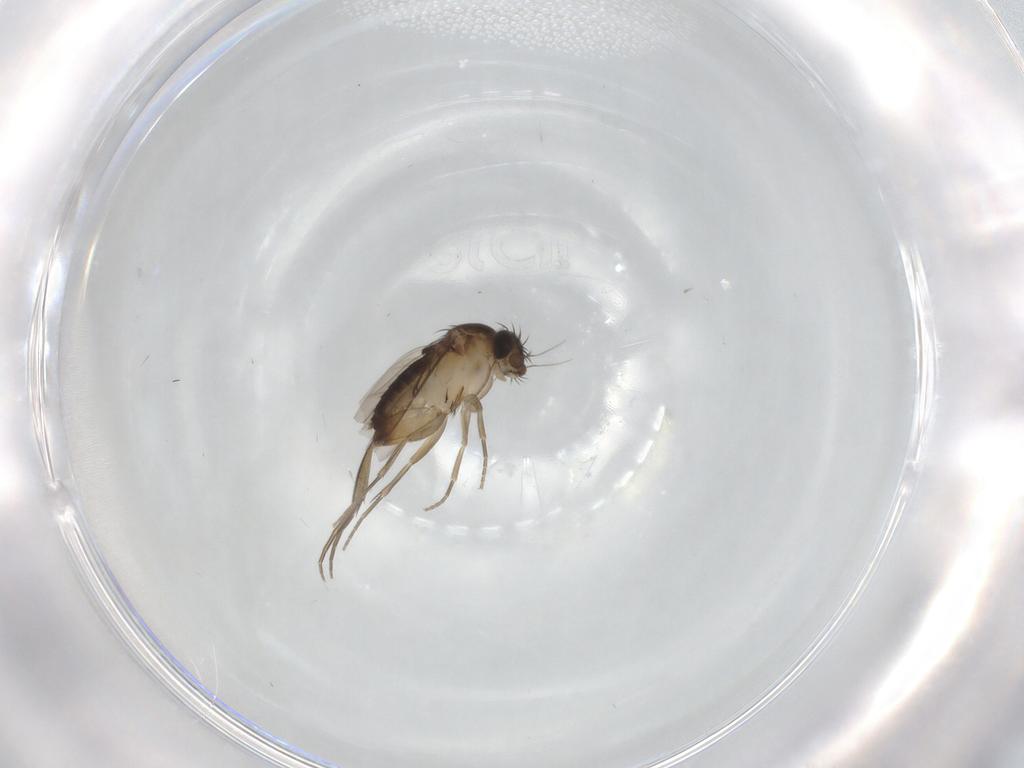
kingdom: Animalia
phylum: Arthropoda
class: Insecta
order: Diptera
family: Phoridae
